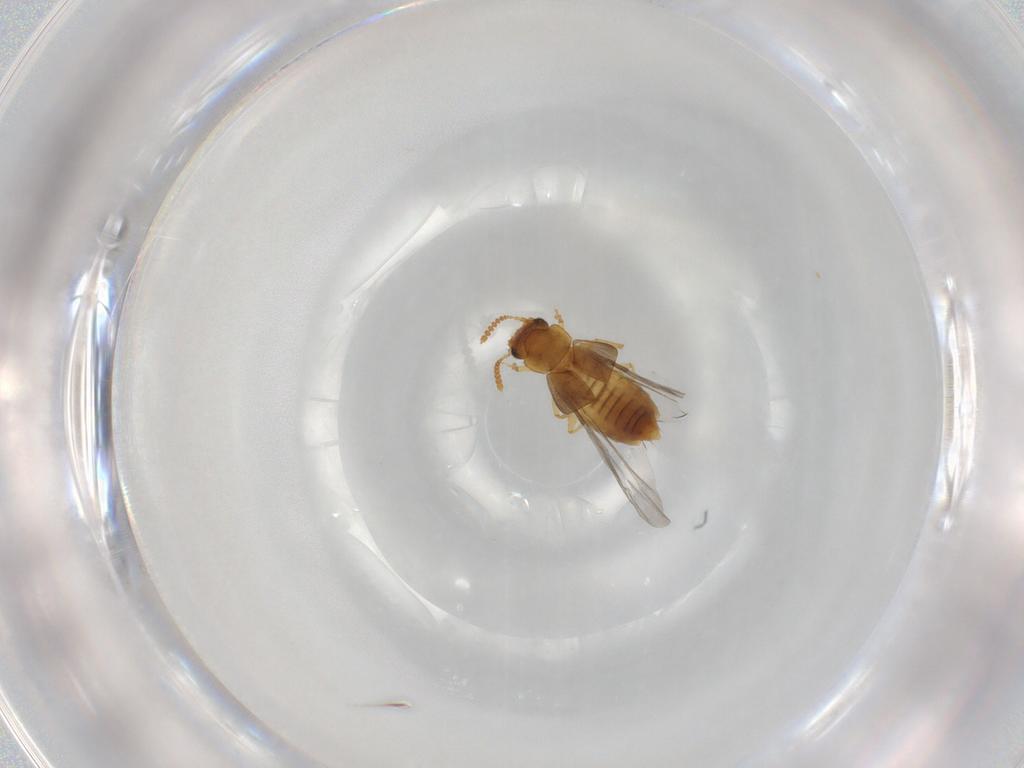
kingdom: Animalia
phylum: Arthropoda
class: Insecta
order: Coleoptera
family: Staphylinidae
